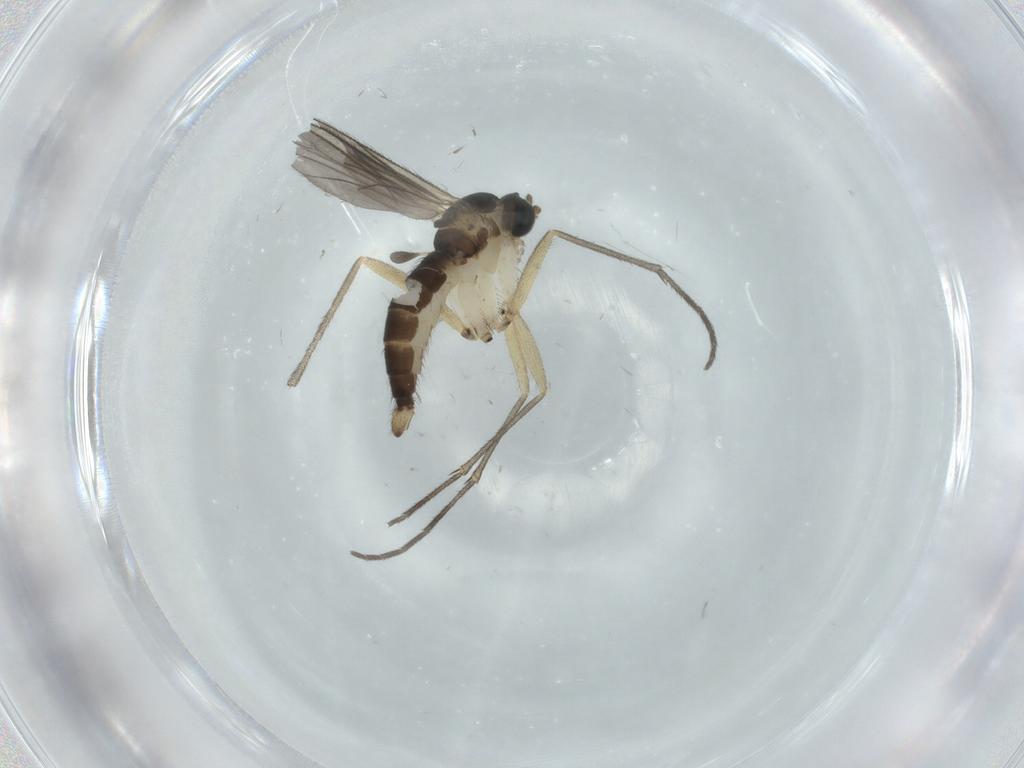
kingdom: Animalia
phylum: Arthropoda
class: Insecta
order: Diptera
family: Sciaridae
